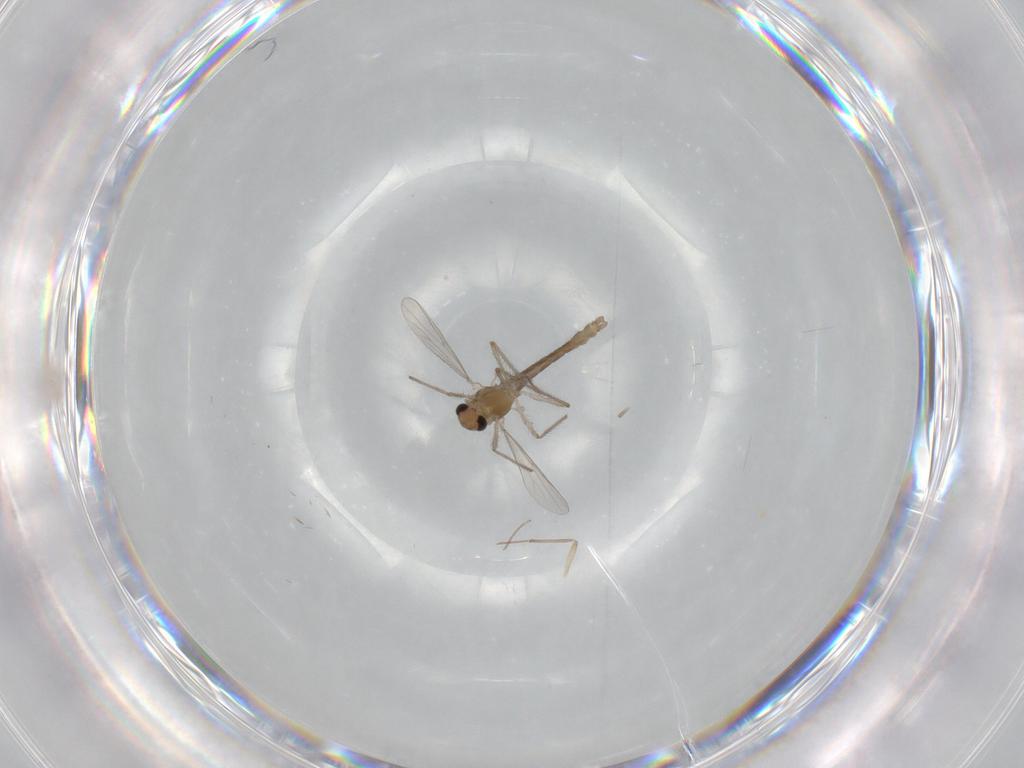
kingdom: Animalia
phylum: Arthropoda
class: Insecta
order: Diptera
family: Chironomidae
